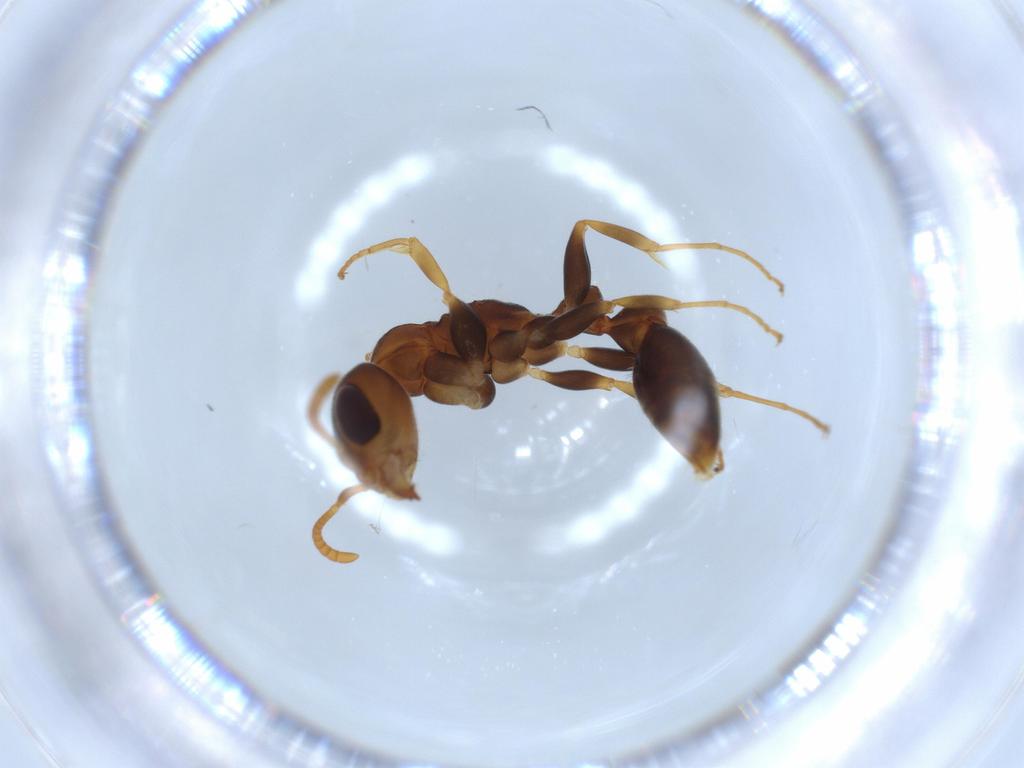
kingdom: Animalia
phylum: Arthropoda
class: Insecta
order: Hymenoptera
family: Formicidae
